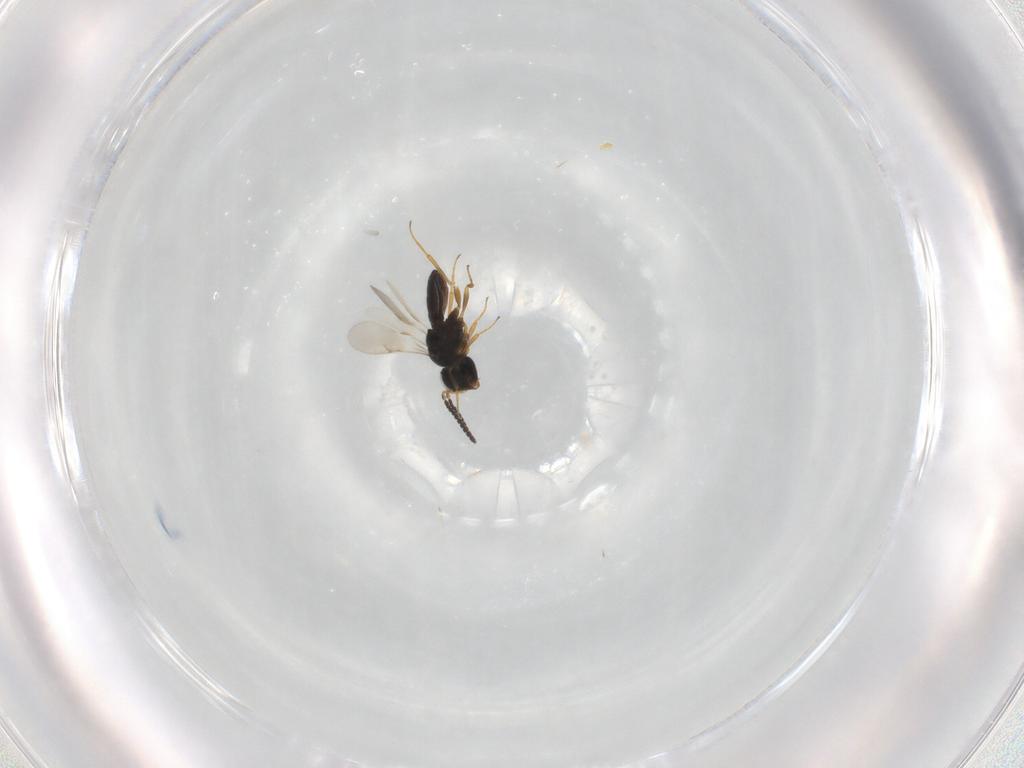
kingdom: Animalia
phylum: Arthropoda
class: Insecta
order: Hymenoptera
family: Scelionidae
